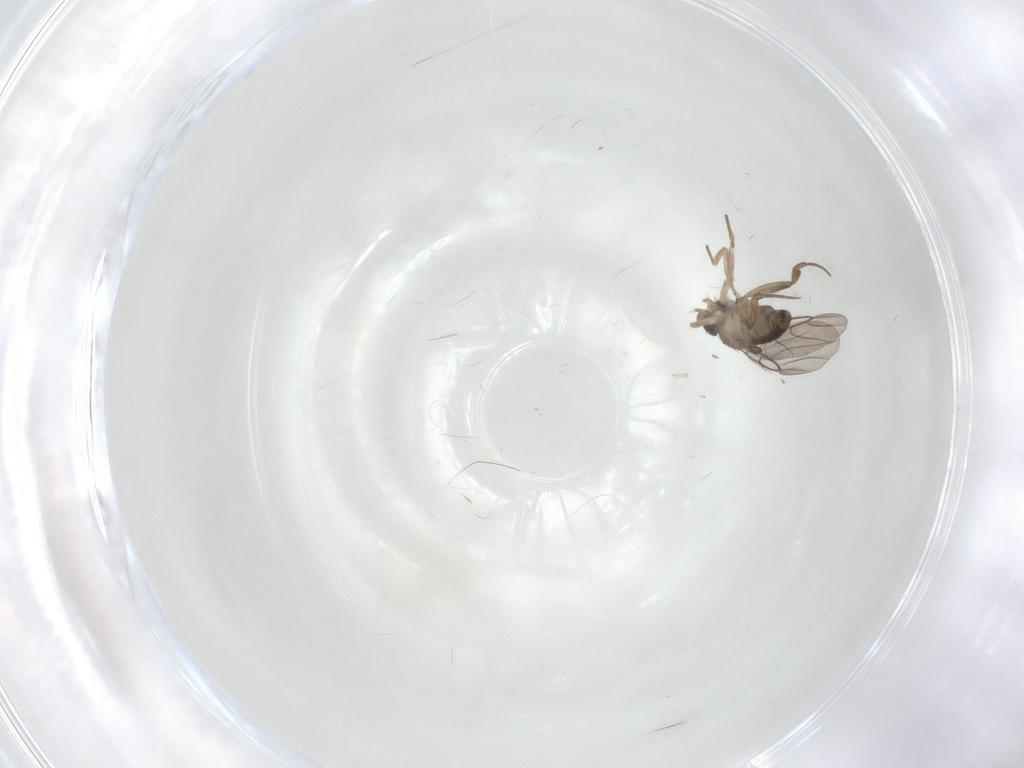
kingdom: Animalia
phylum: Arthropoda
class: Insecta
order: Diptera
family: Phoridae
